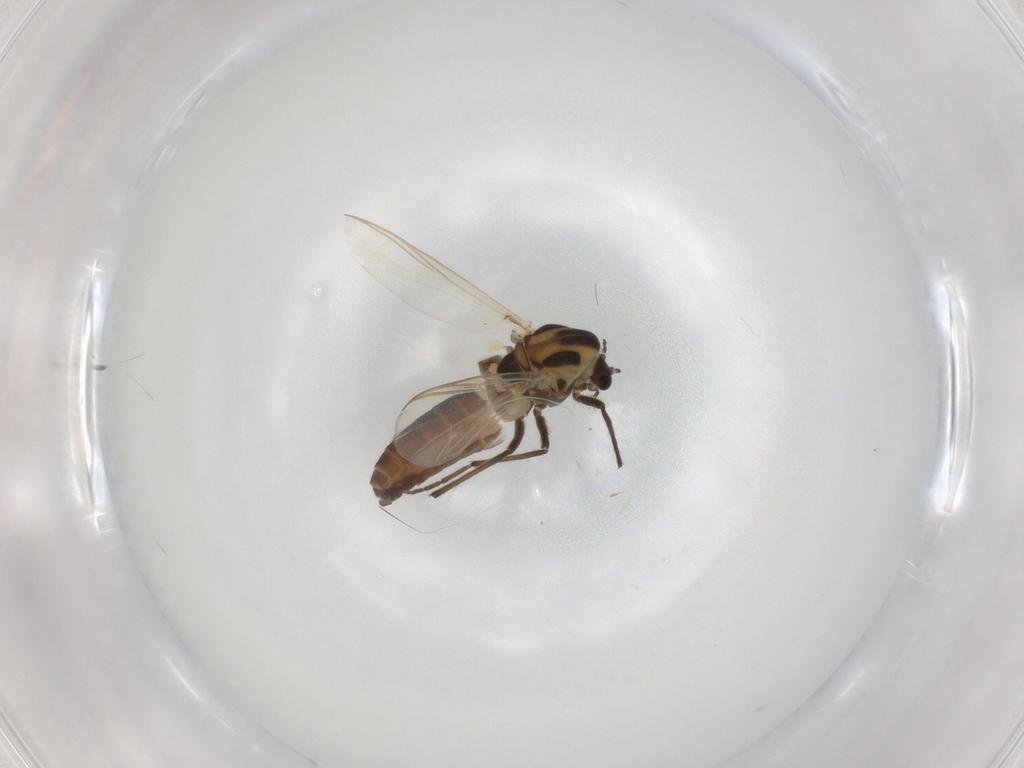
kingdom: Animalia
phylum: Arthropoda
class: Insecta
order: Diptera
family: Chironomidae
